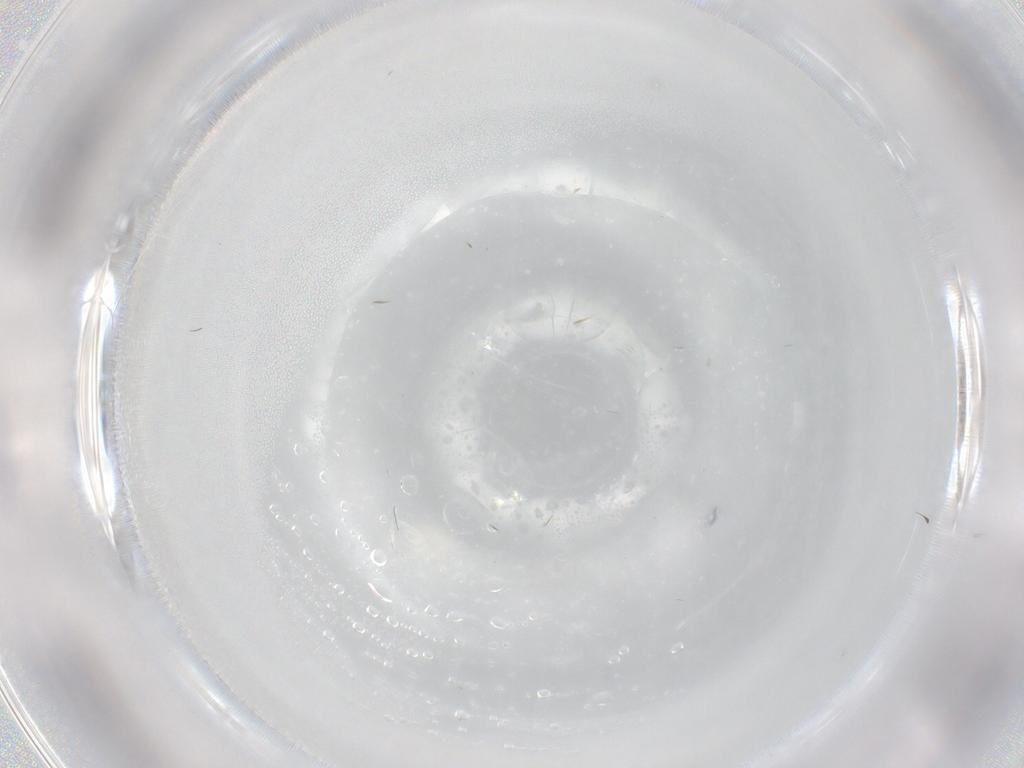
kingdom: Animalia
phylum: Arthropoda
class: Insecta
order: Diptera
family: Cecidomyiidae
